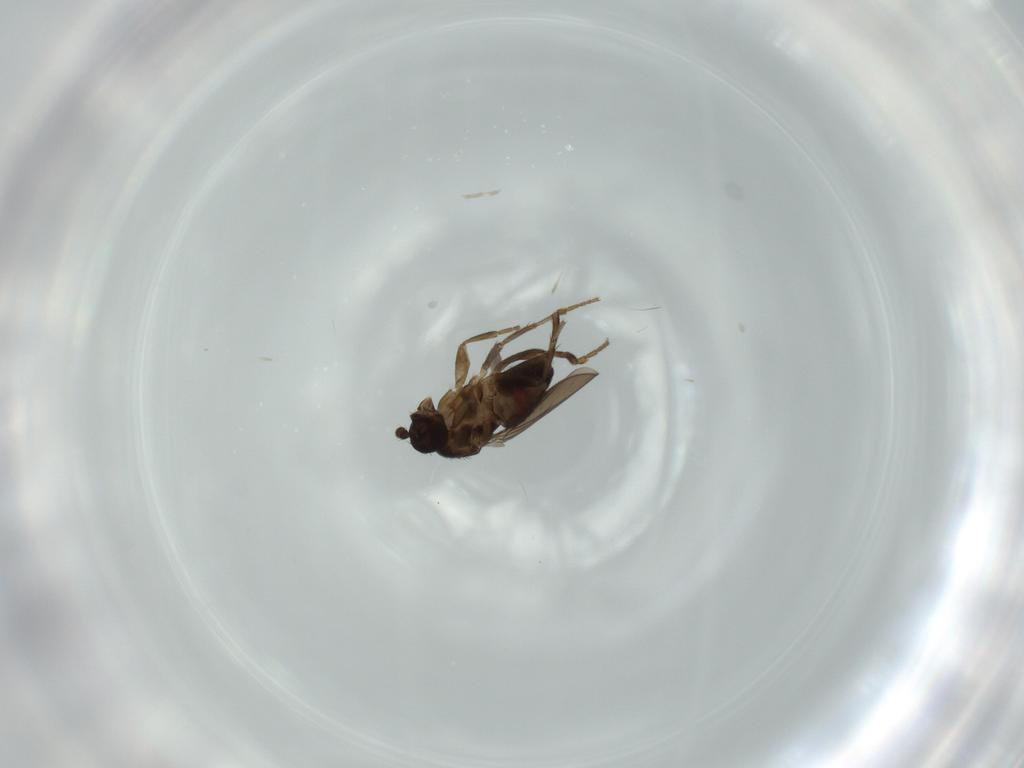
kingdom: Animalia
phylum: Arthropoda
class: Insecta
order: Diptera
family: Sphaeroceridae
